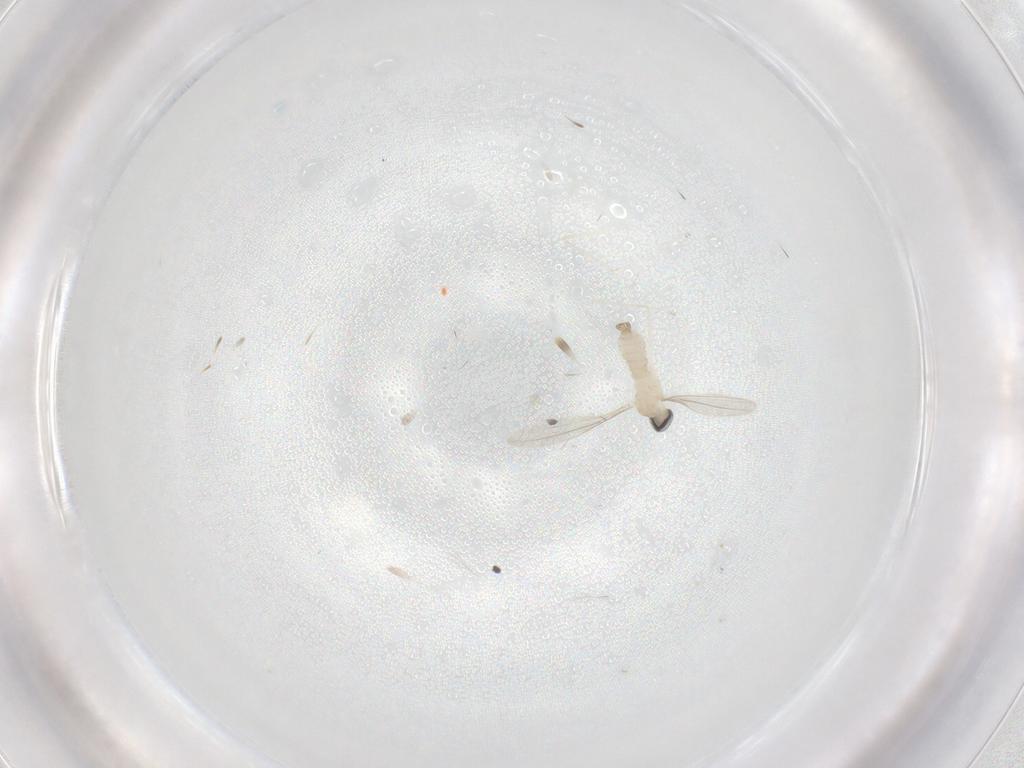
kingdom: Animalia
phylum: Arthropoda
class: Insecta
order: Diptera
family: Cecidomyiidae
